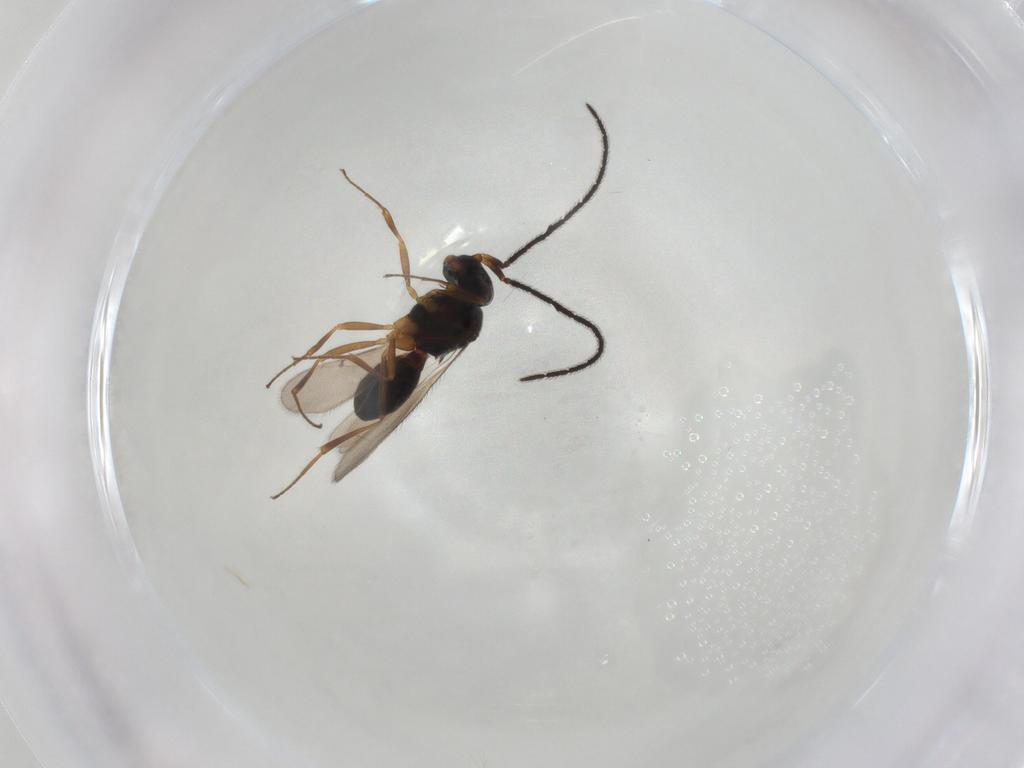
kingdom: Animalia
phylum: Arthropoda
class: Insecta
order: Hymenoptera
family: Scelionidae
